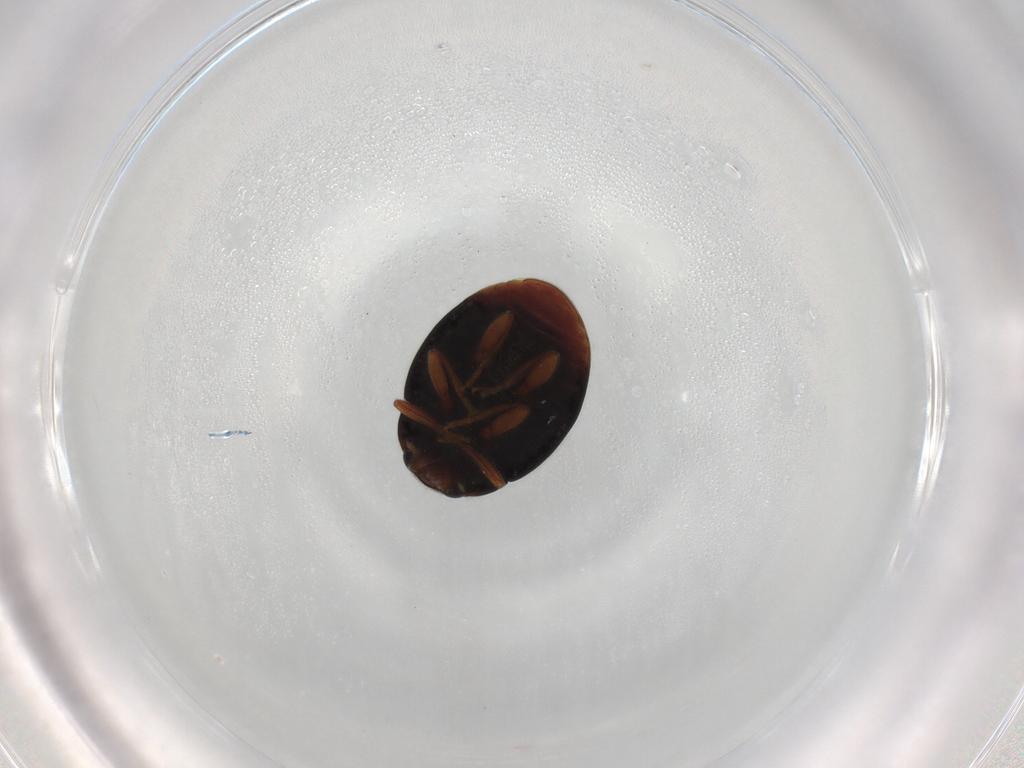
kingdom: Animalia
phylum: Arthropoda
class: Insecta
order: Coleoptera
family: Coccinellidae
